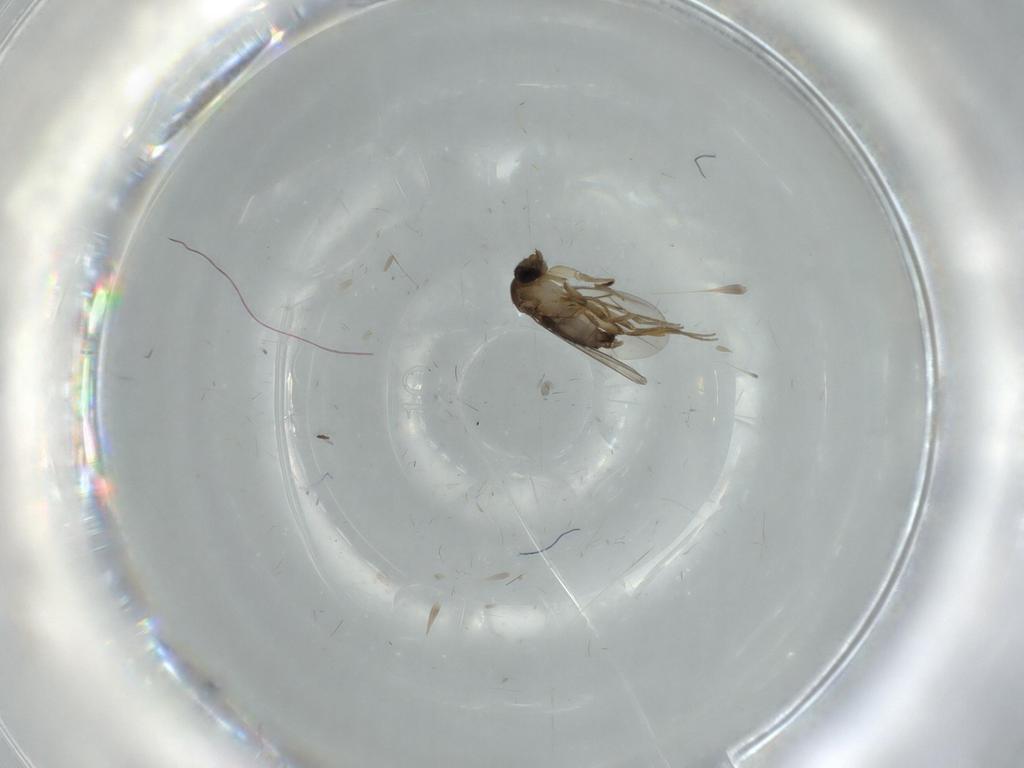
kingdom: Animalia
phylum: Arthropoda
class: Insecta
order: Diptera
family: Phoridae
